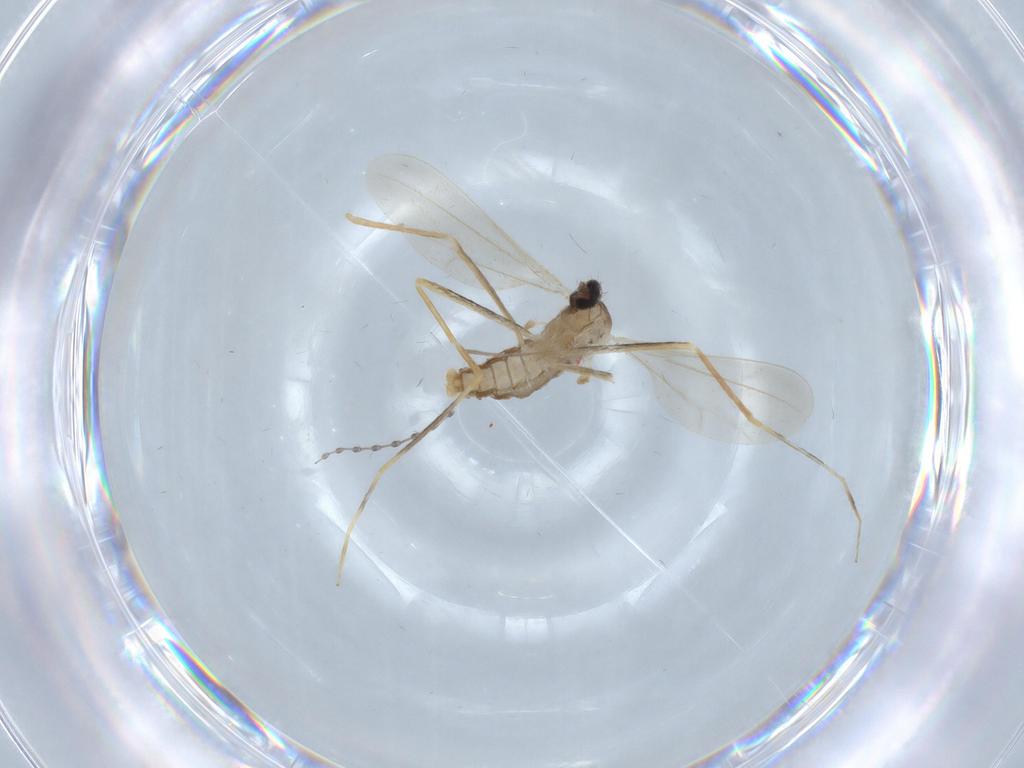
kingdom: Animalia
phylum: Arthropoda
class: Insecta
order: Diptera
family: Chironomidae
